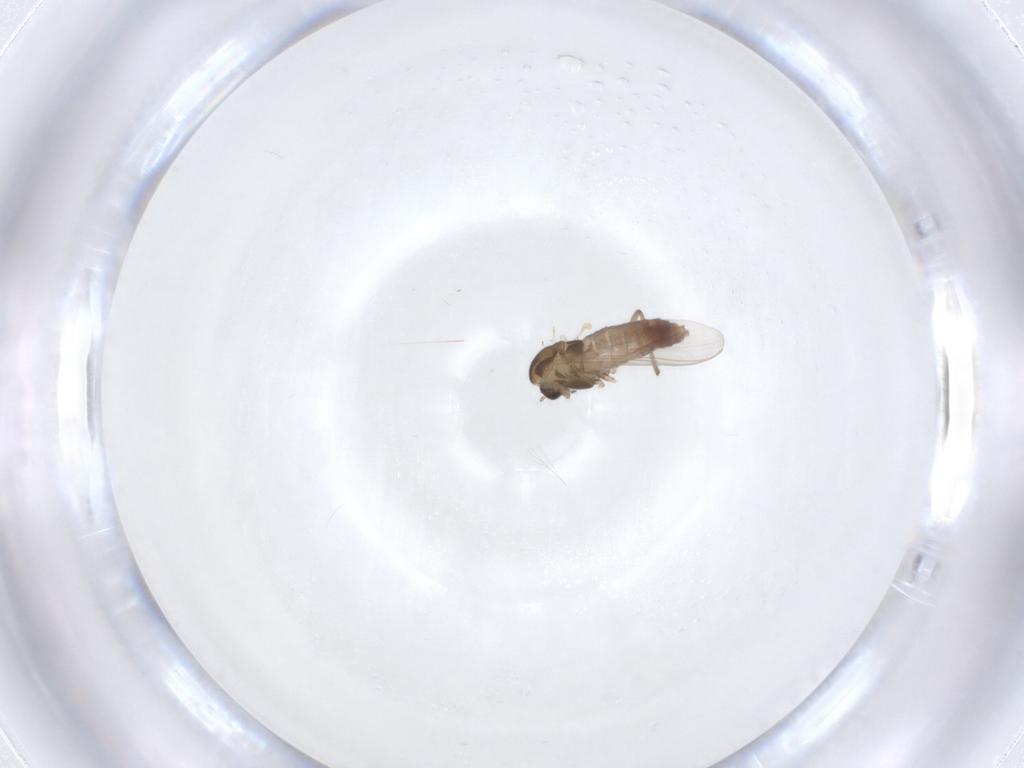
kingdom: Animalia
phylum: Arthropoda
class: Insecta
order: Diptera
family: Chironomidae
